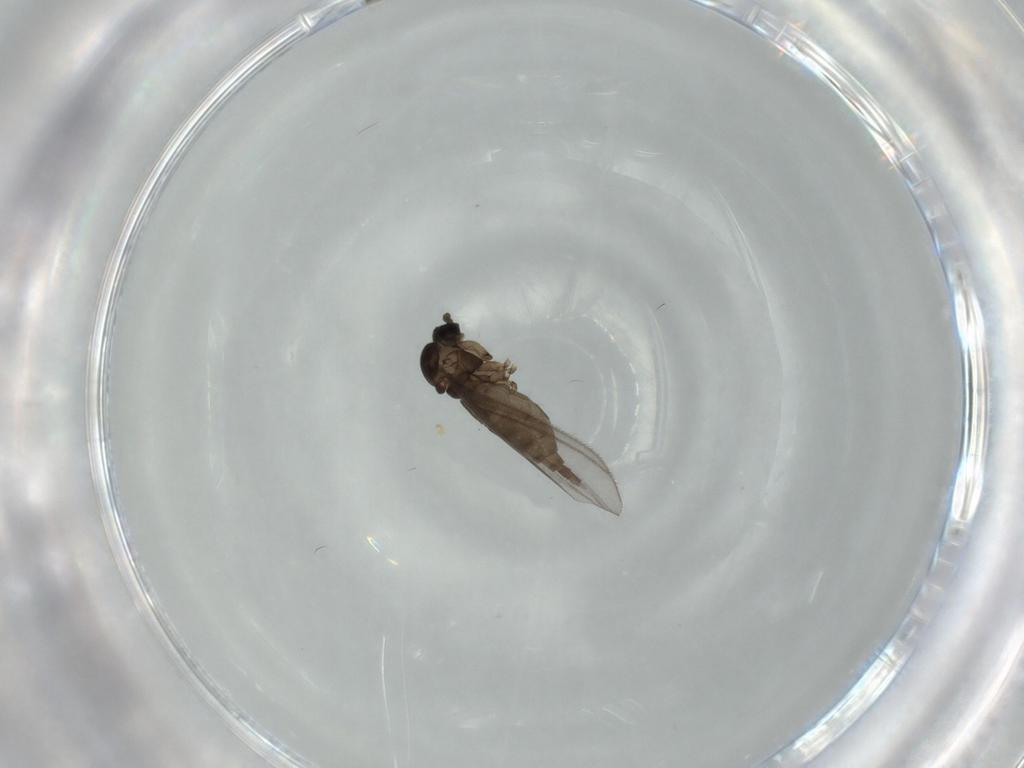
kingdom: Animalia
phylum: Arthropoda
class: Insecta
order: Diptera
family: Sciaridae
